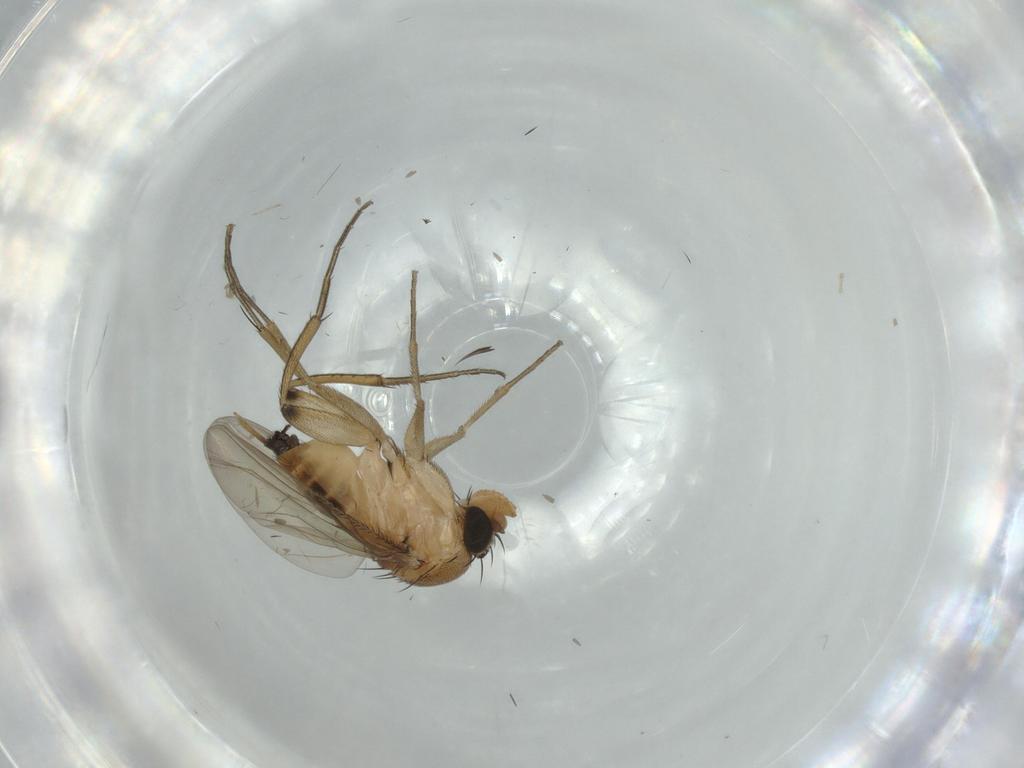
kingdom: Animalia
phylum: Arthropoda
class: Insecta
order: Diptera
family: Phoridae
